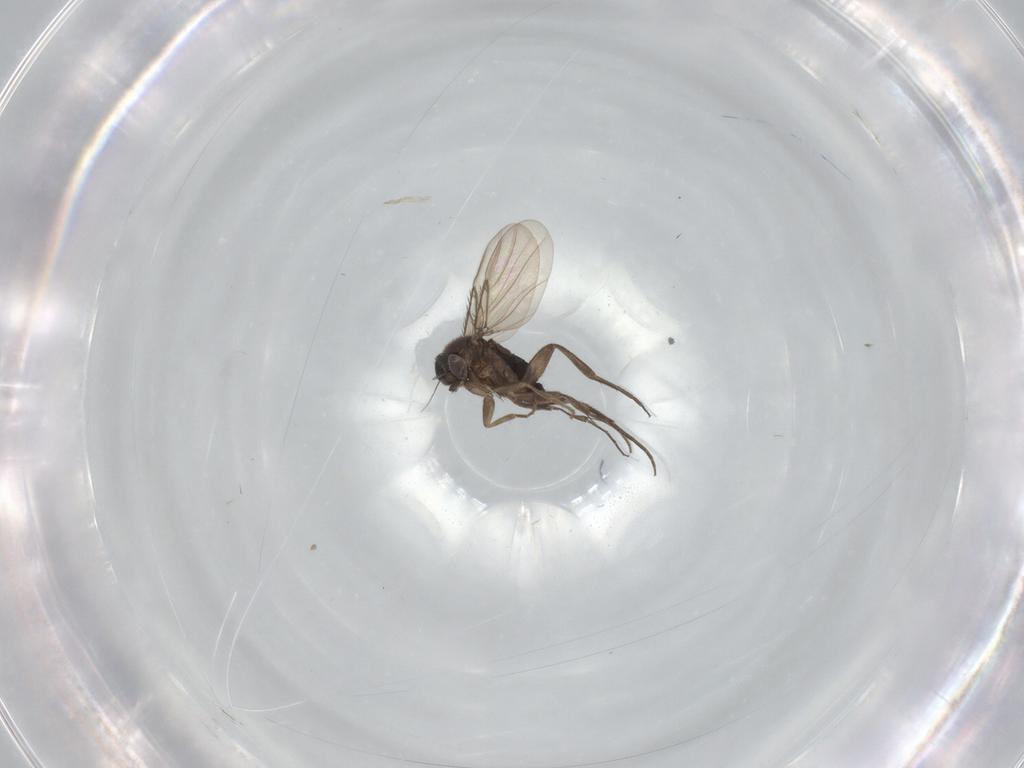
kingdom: Animalia
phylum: Arthropoda
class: Insecta
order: Diptera
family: Phoridae
